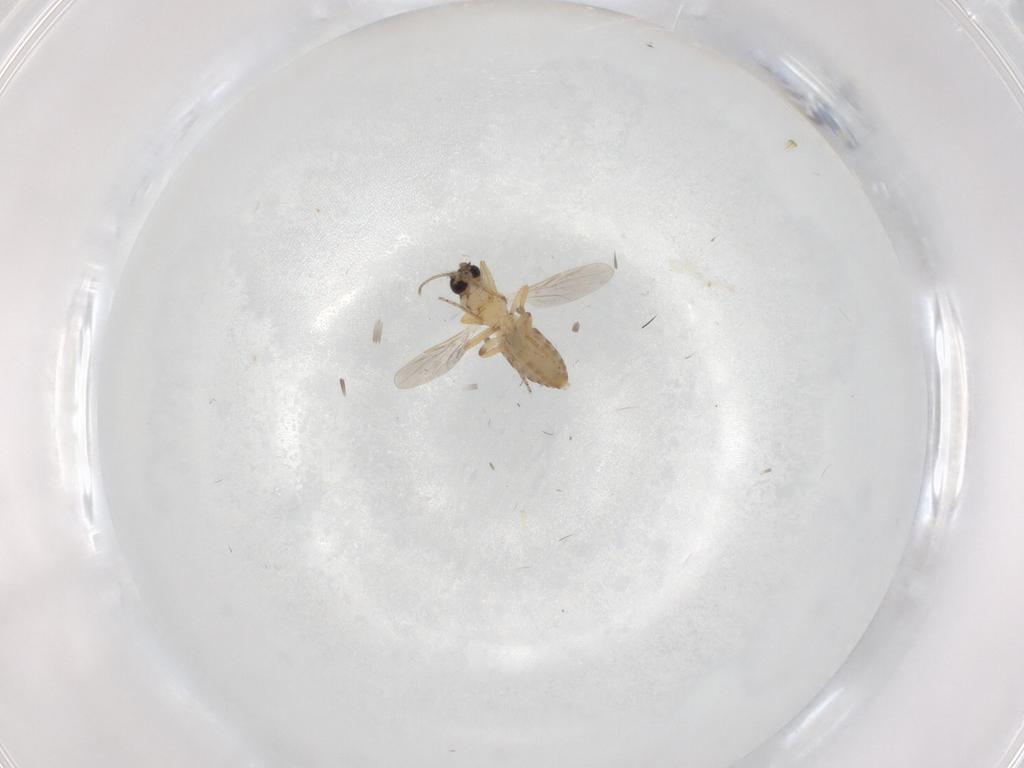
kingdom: Animalia
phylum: Arthropoda
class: Insecta
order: Diptera
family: Ceratopogonidae
